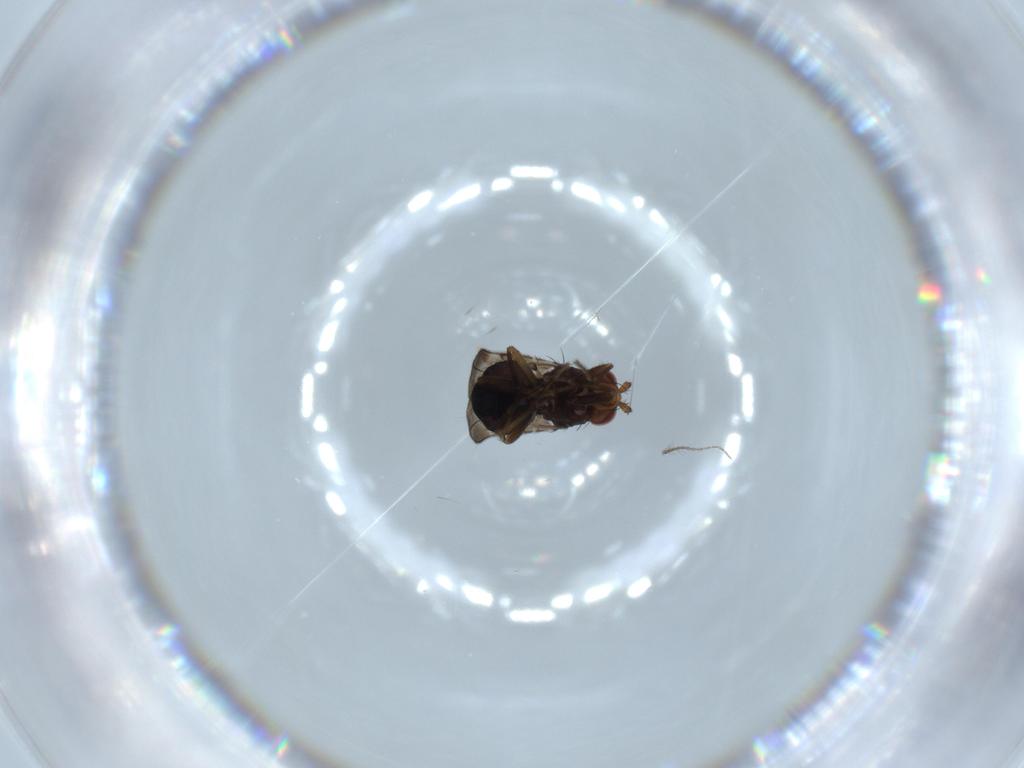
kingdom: Animalia
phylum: Arthropoda
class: Insecta
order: Diptera
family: Sphaeroceridae
